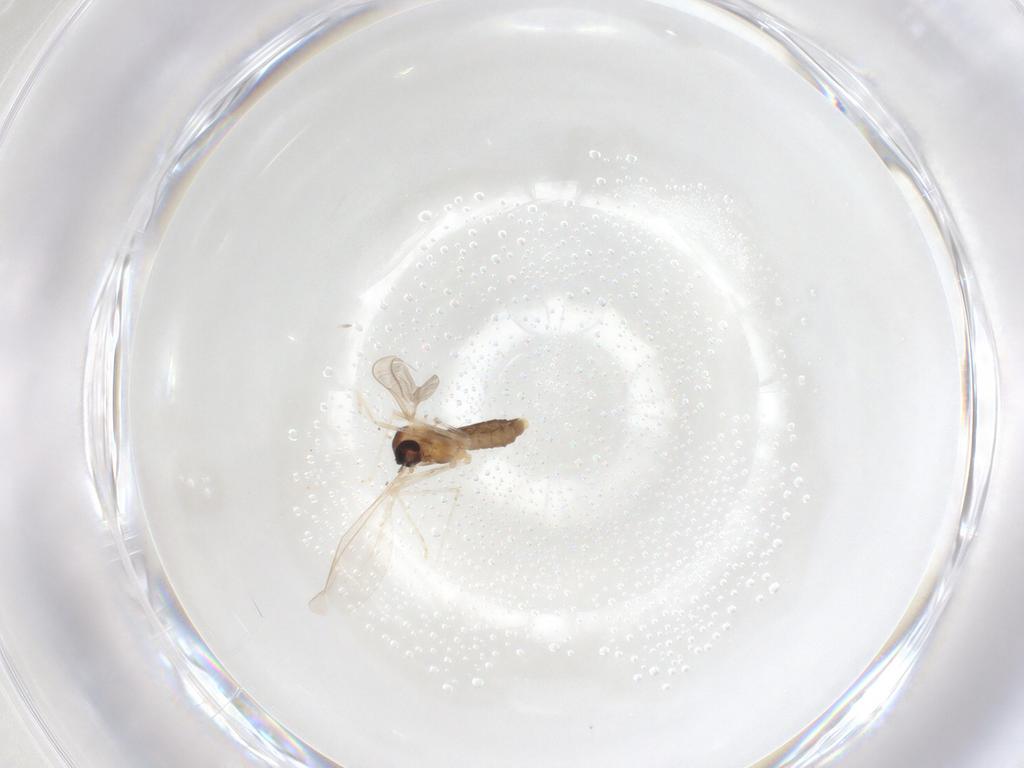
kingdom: Animalia
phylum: Arthropoda
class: Insecta
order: Diptera
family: Cecidomyiidae
